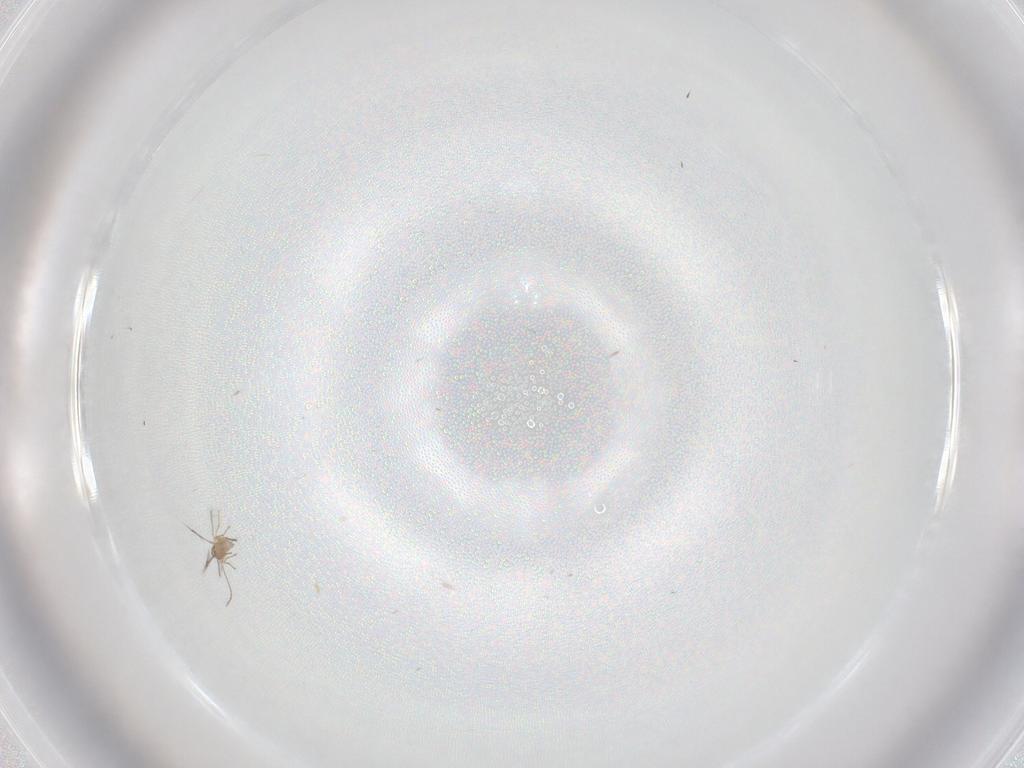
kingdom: Animalia
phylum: Arthropoda
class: Insecta
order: Hymenoptera
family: Mymaridae
